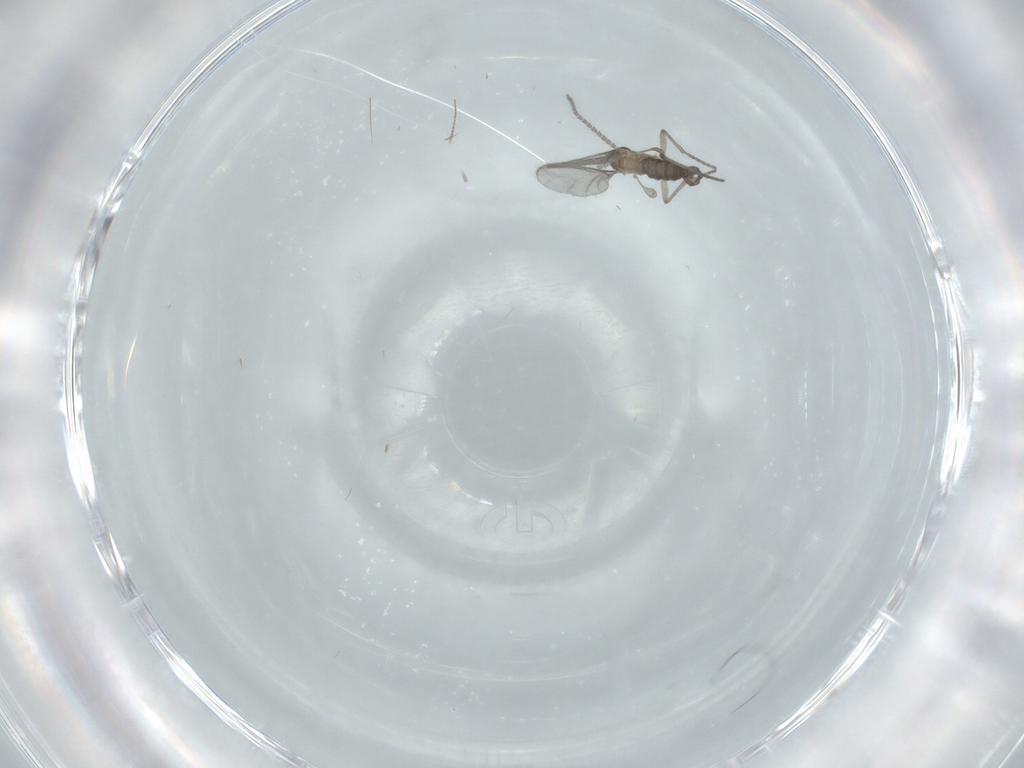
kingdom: Animalia
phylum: Arthropoda
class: Insecta
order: Diptera
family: Sciaridae
